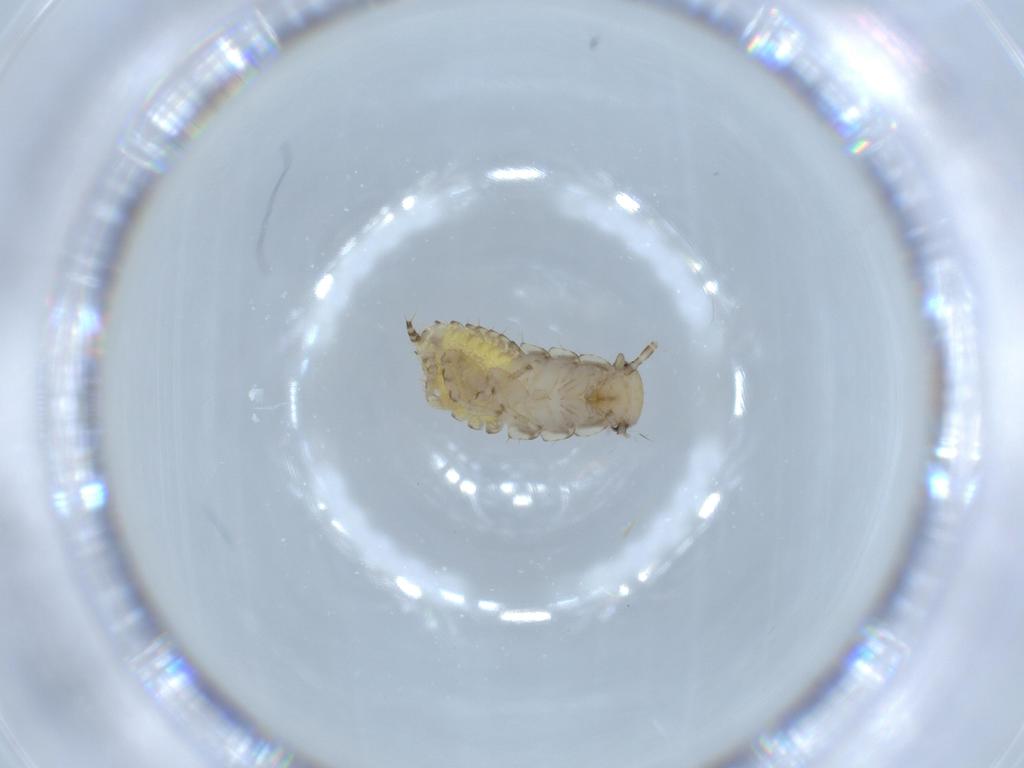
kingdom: Animalia
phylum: Arthropoda
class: Insecta
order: Blattodea
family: Ectobiidae
